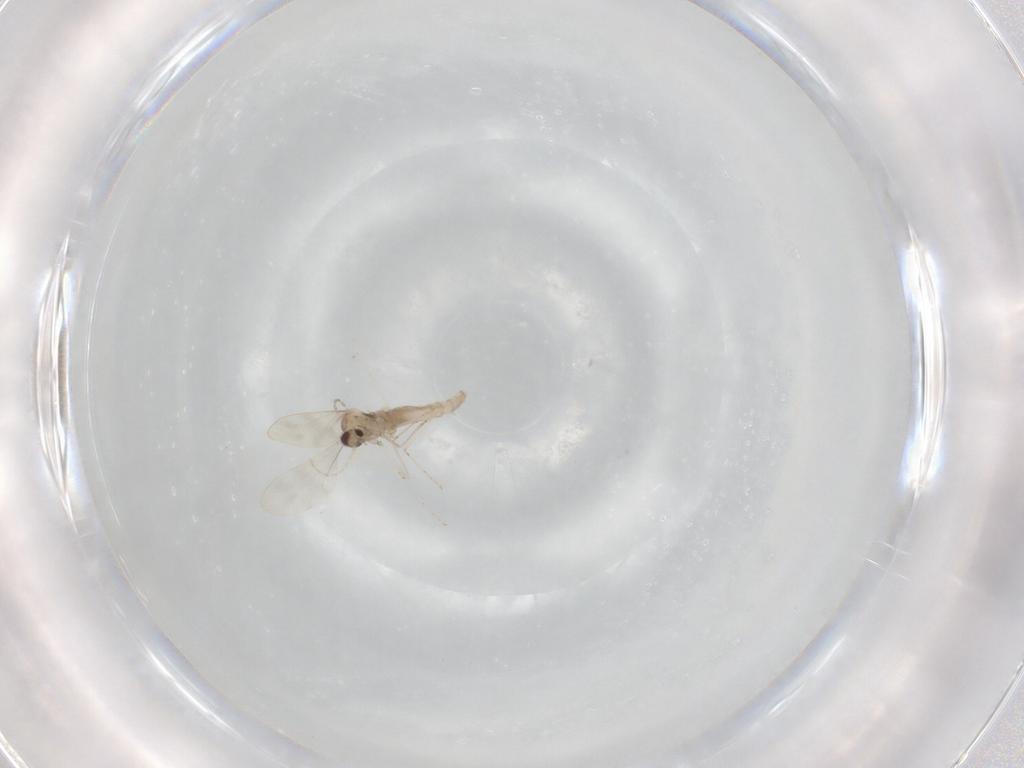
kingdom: Animalia
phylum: Arthropoda
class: Insecta
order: Diptera
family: Cecidomyiidae
